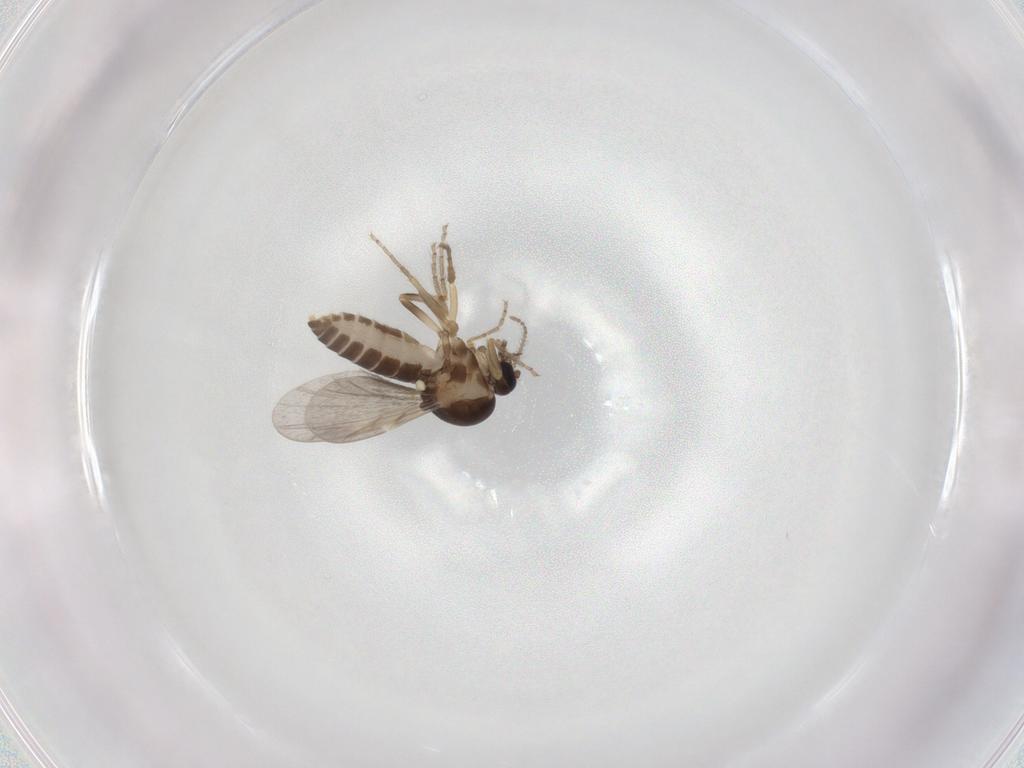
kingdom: Animalia
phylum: Arthropoda
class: Insecta
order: Diptera
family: Ceratopogonidae
